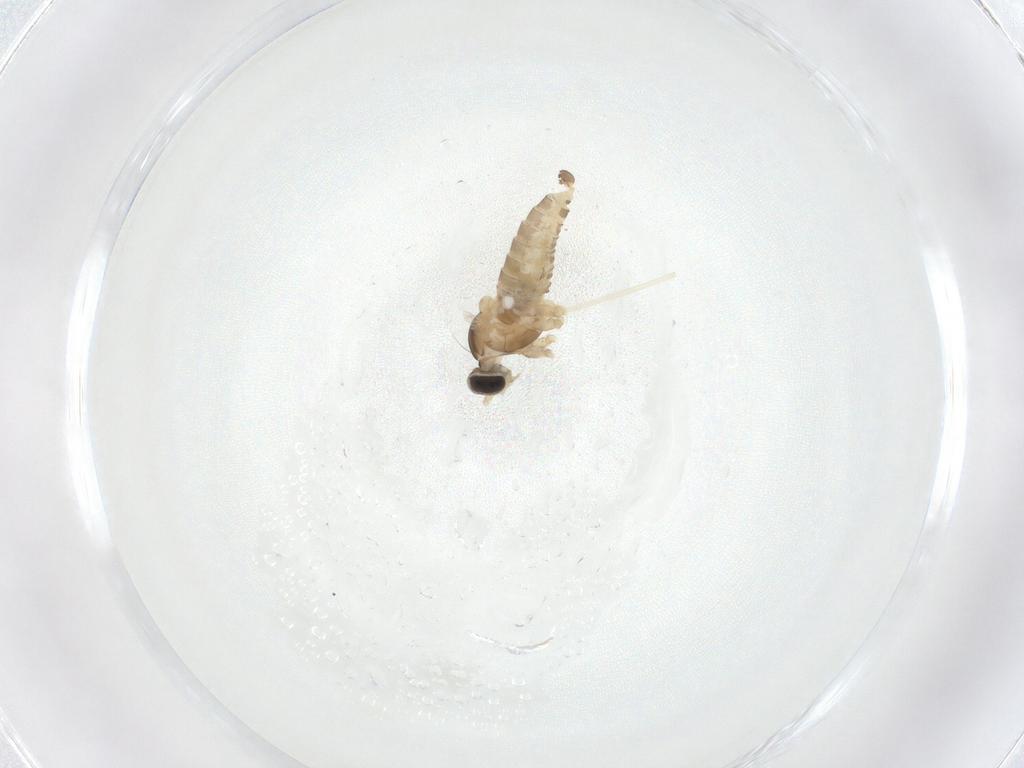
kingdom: Animalia
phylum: Arthropoda
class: Insecta
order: Diptera
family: Cecidomyiidae
